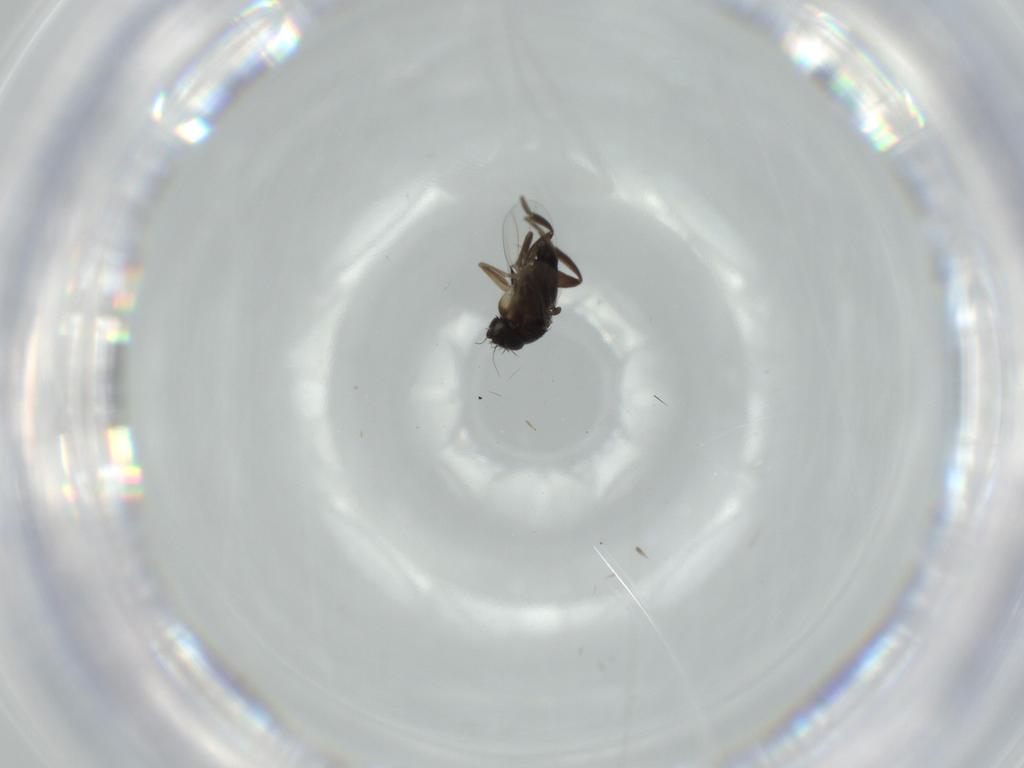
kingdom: Animalia
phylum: Arthropoda
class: Insecta
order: Diptera
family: Phoridae
